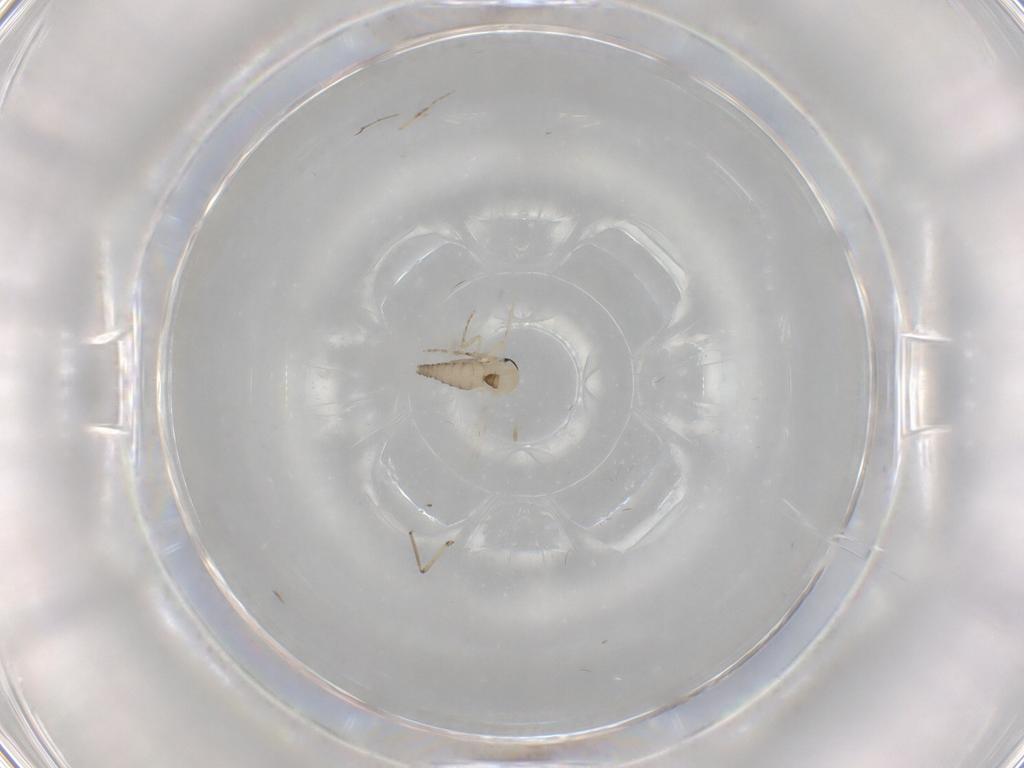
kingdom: Animalia
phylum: Arthropoda
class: Insecta
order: Diptera
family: Ceratopogonidae
